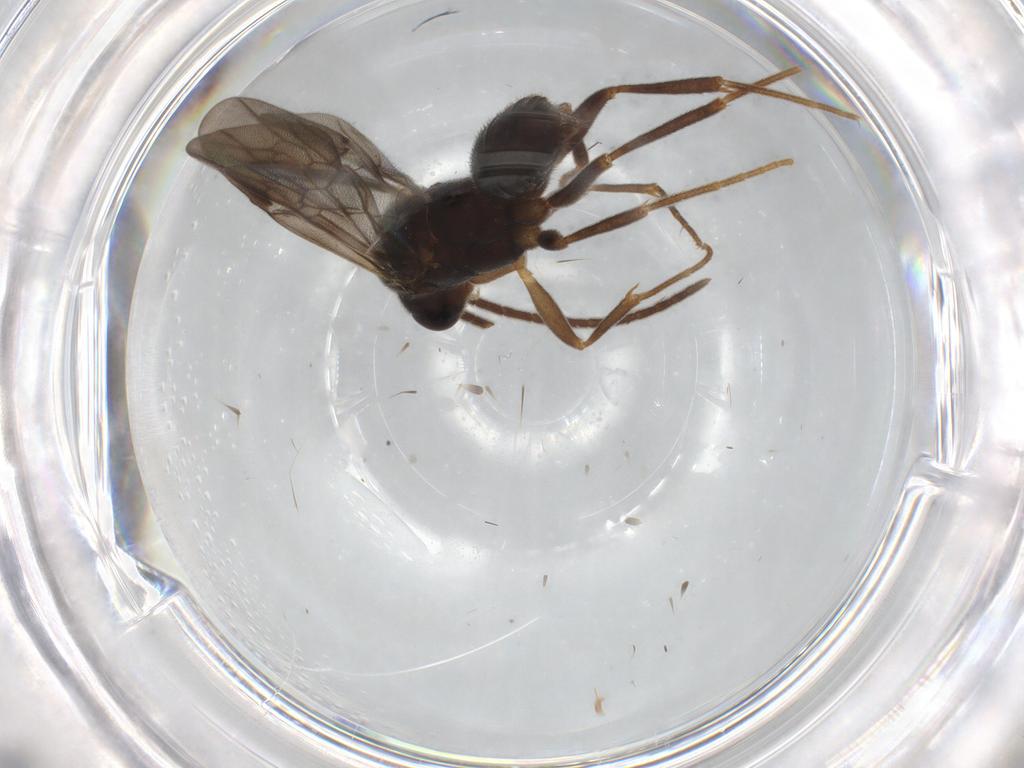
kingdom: Animalia
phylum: Arthropoda
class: Insecta
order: Hymenoptera
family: Formicidae
